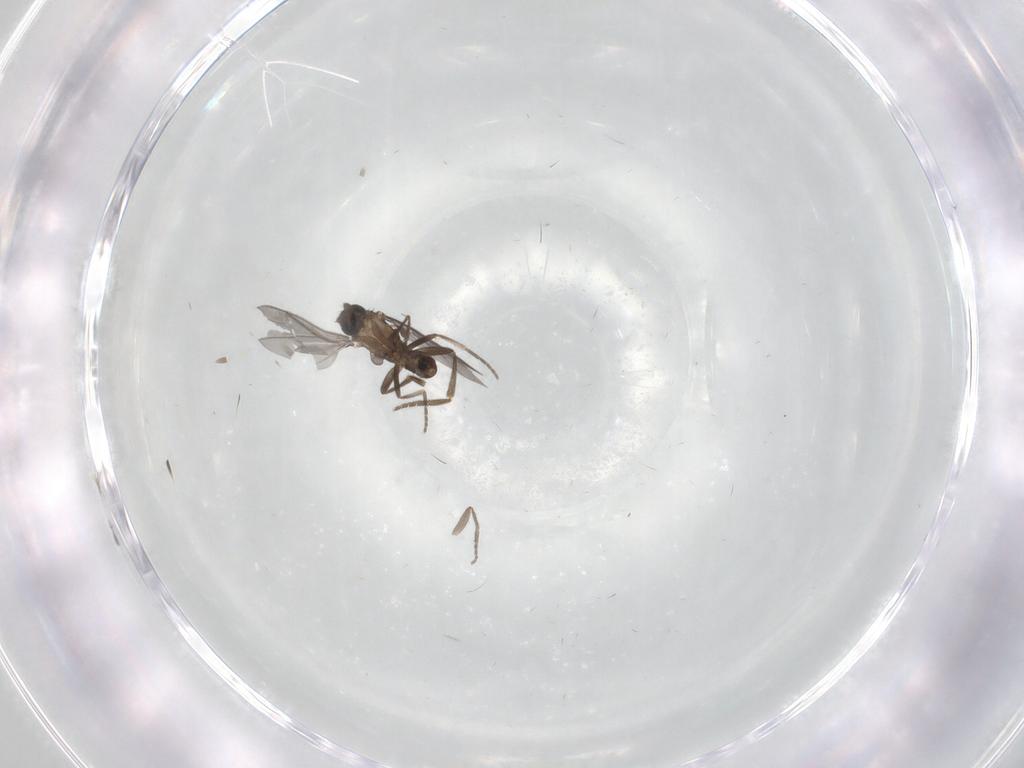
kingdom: Animalia
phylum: Arthropoda
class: Insecta
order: Diptera
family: Phoridae
